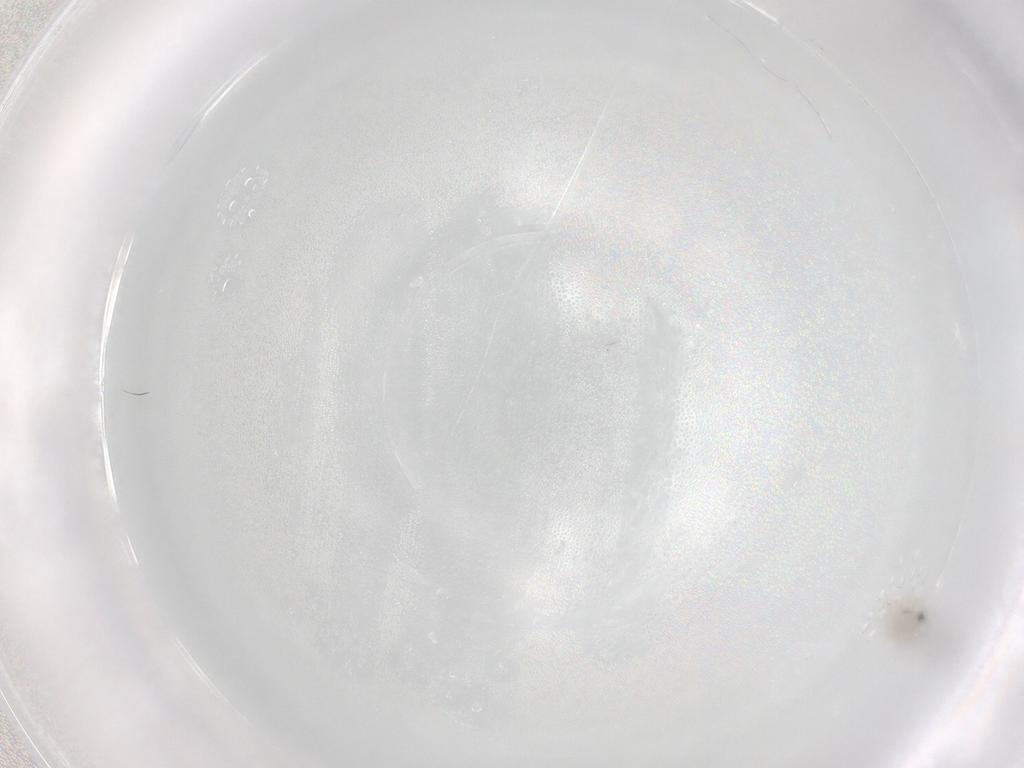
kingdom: Animalia
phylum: Arthropoda
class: Insecta
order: Diptera
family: Cecidomyiidae
